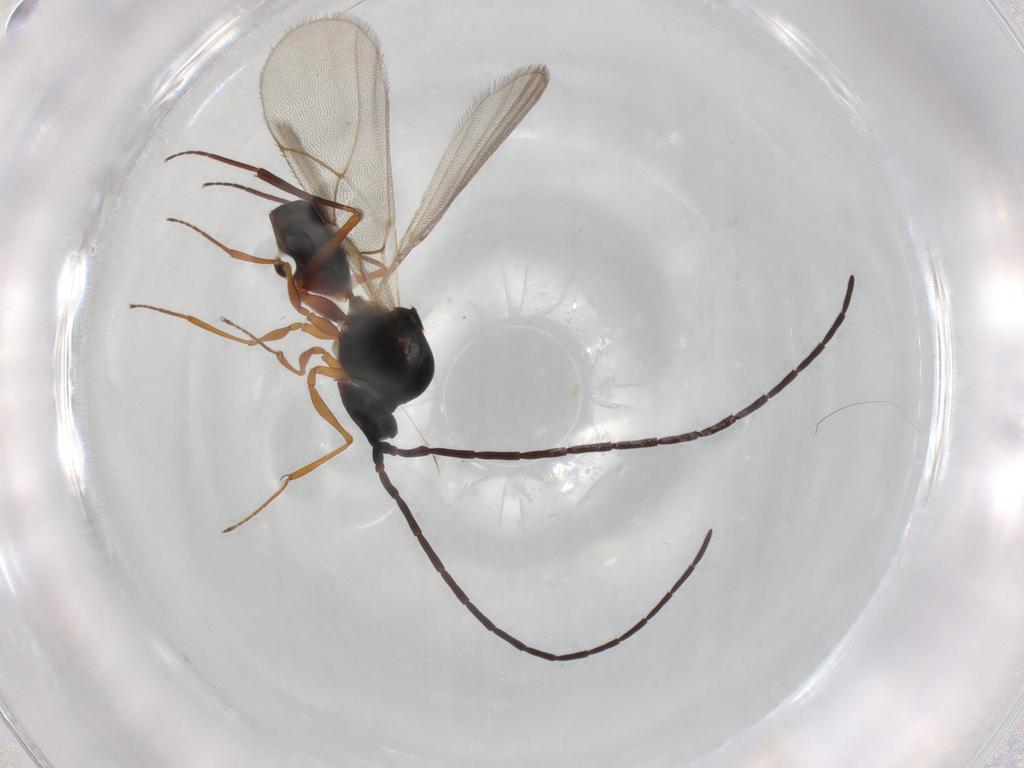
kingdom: Animalia
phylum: Arthropoda
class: Insecta
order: Hymenoptera
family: Figitidae
